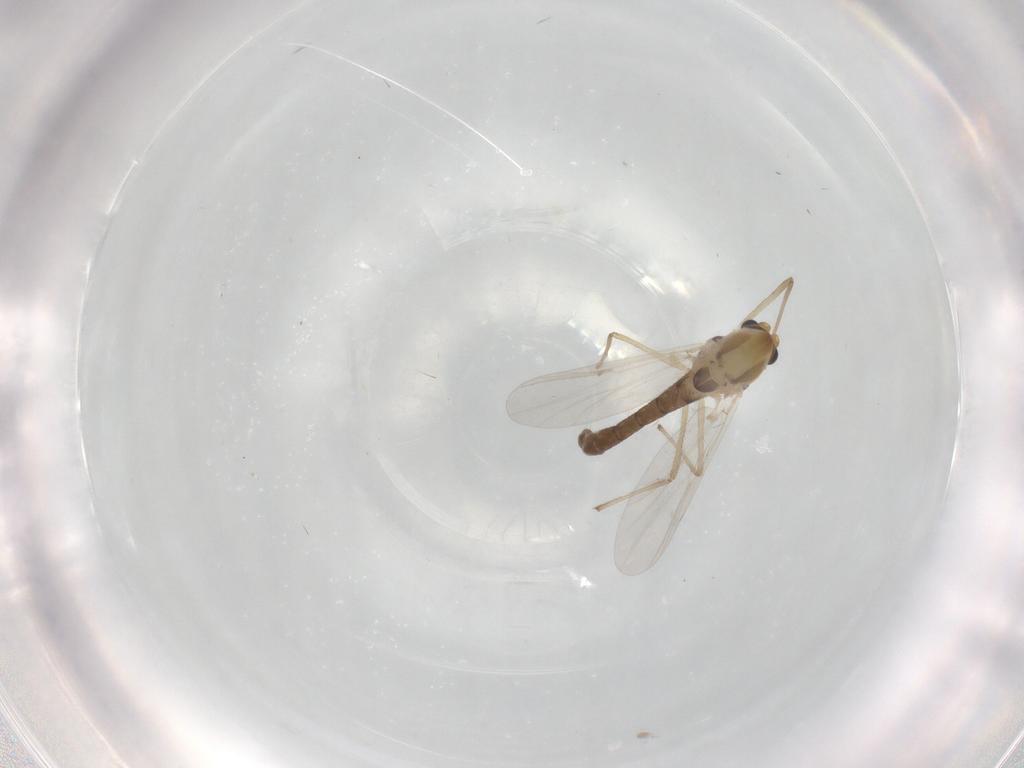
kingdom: Animalia
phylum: Arthropoda
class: Insecta
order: Diptera
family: Chironomidae
